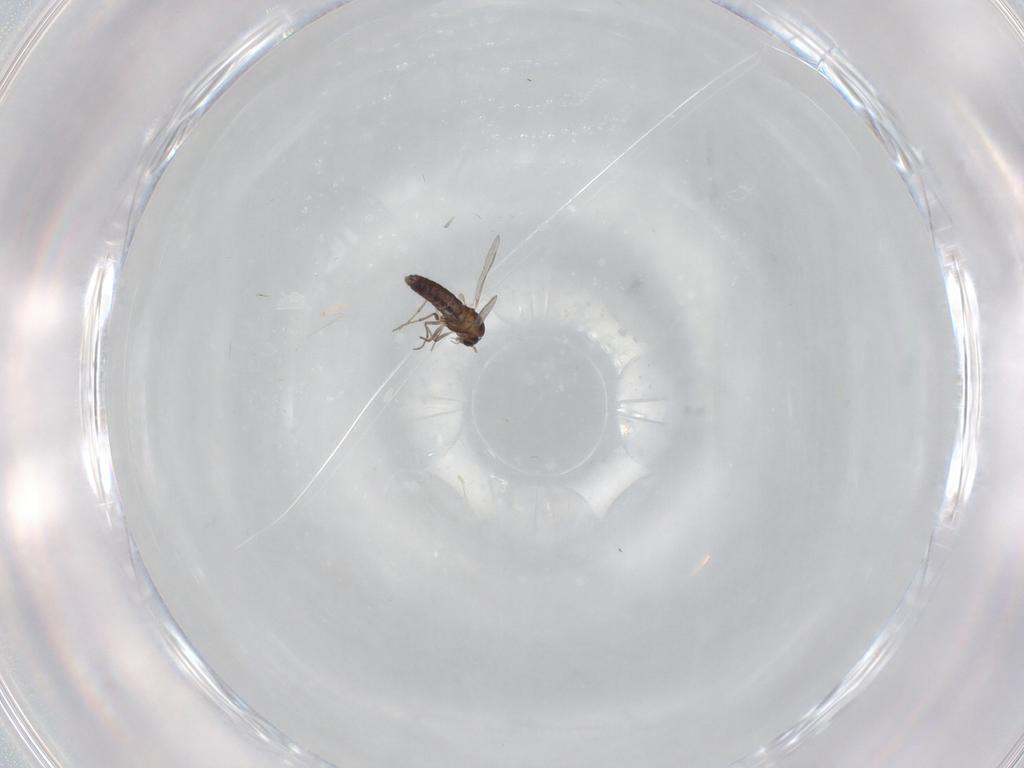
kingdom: Animalia
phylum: Arthropoda
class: Insecta
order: Diptera
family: Chironomidae
